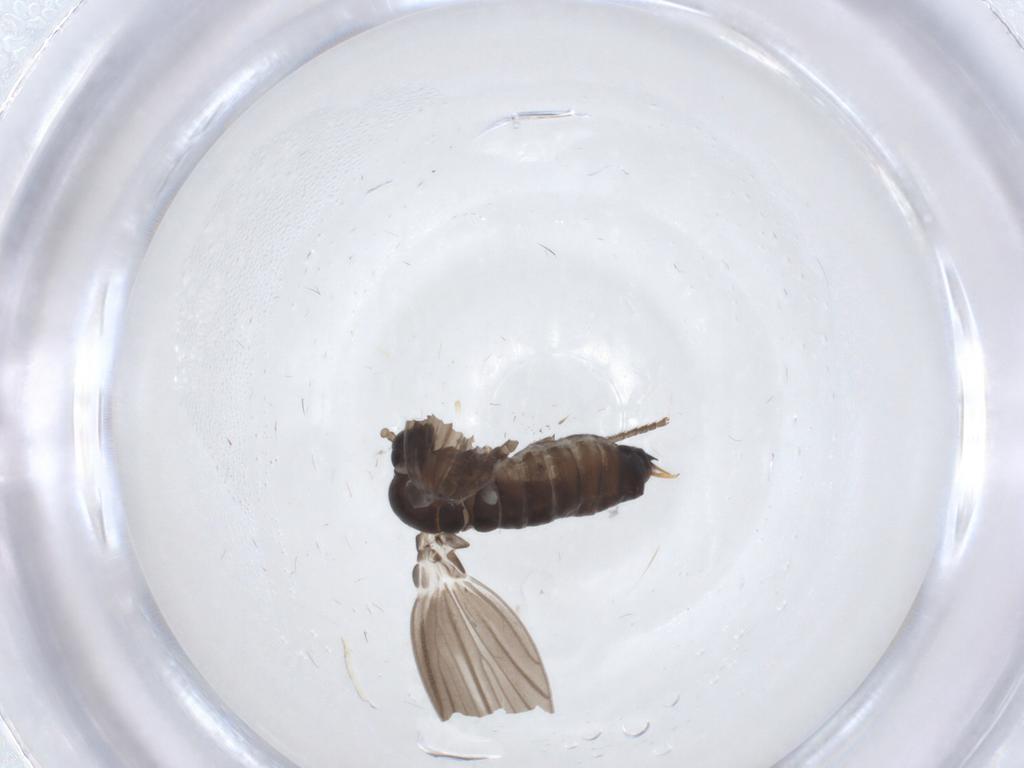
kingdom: Animalia
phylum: Arthropoda
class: Insecta
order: Diptera
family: Psychodidae
